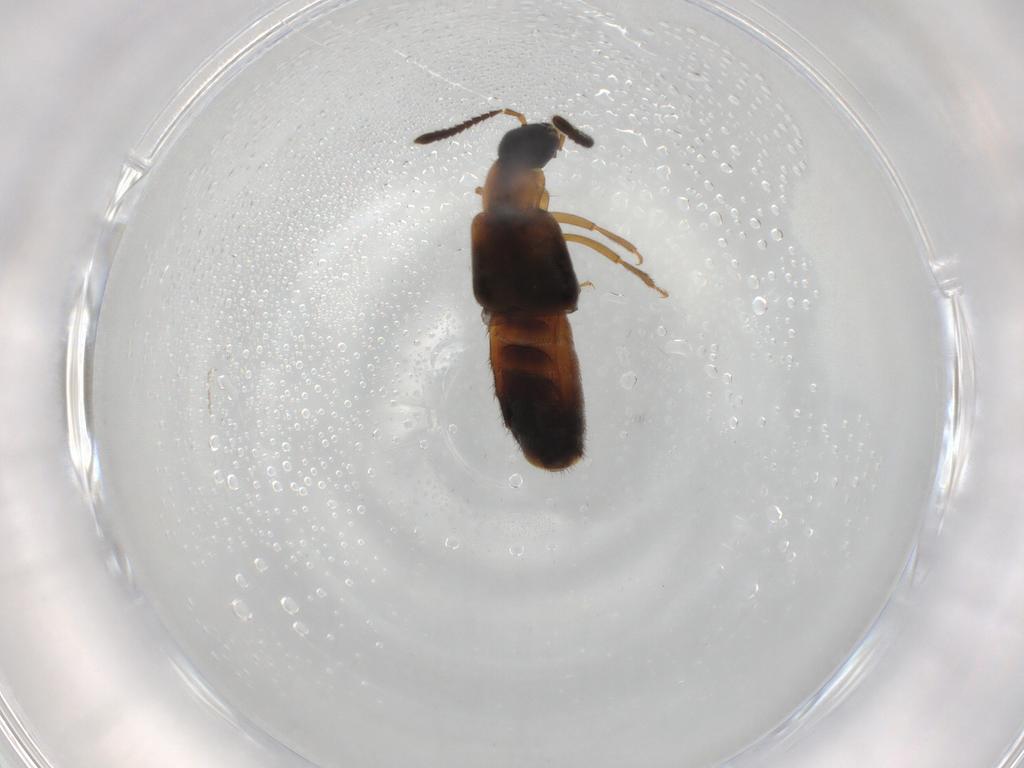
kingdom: Animalia
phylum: Arthropoda
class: Insecta
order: Coleoptera
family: Staphylinidae
